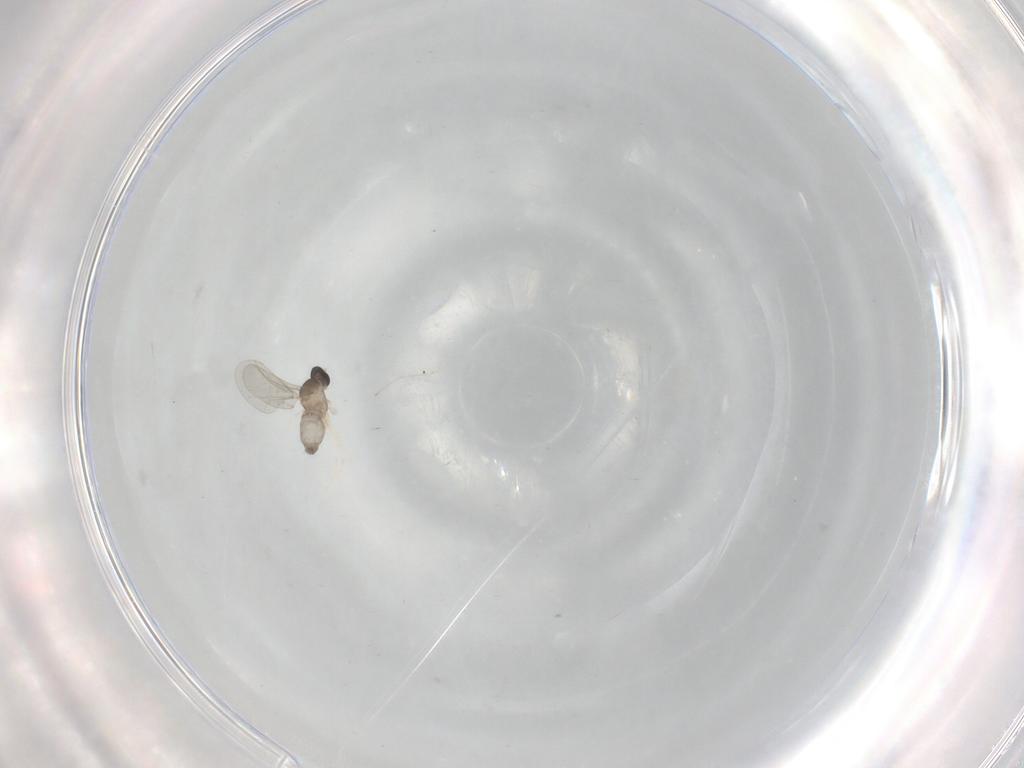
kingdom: Animalia
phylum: Arthropoda
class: Insecta
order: Diptera
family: Cecidomyiidae
